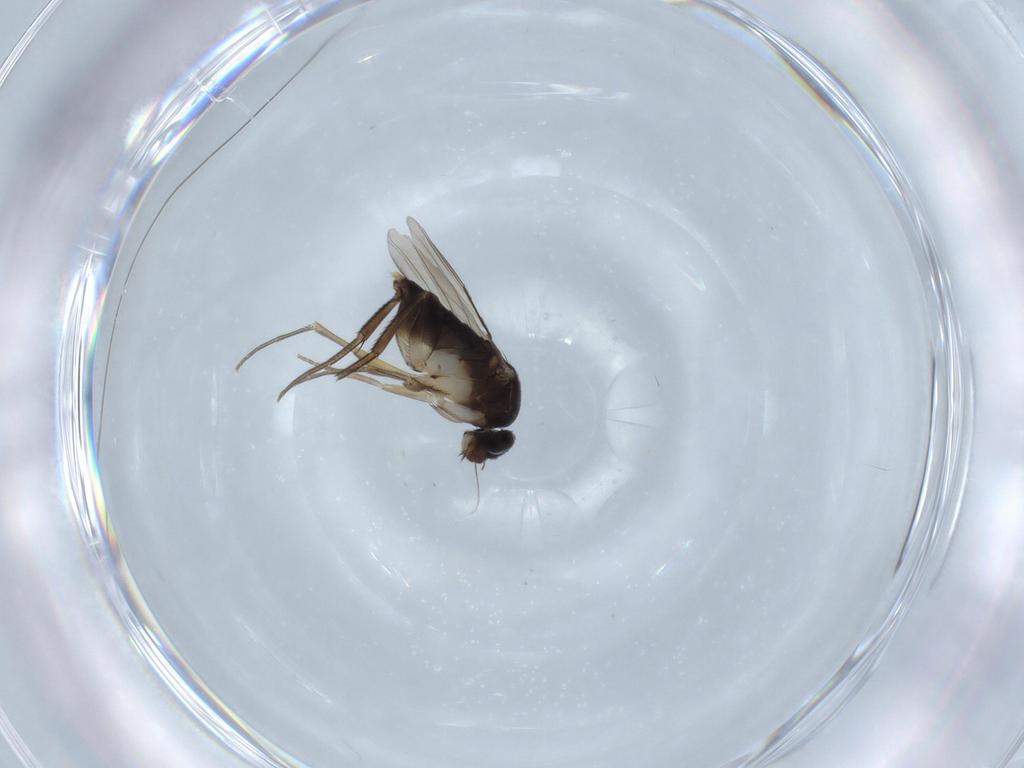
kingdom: Animalia
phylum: Arthropoda
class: Insecta
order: Diptera
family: Phoridae
